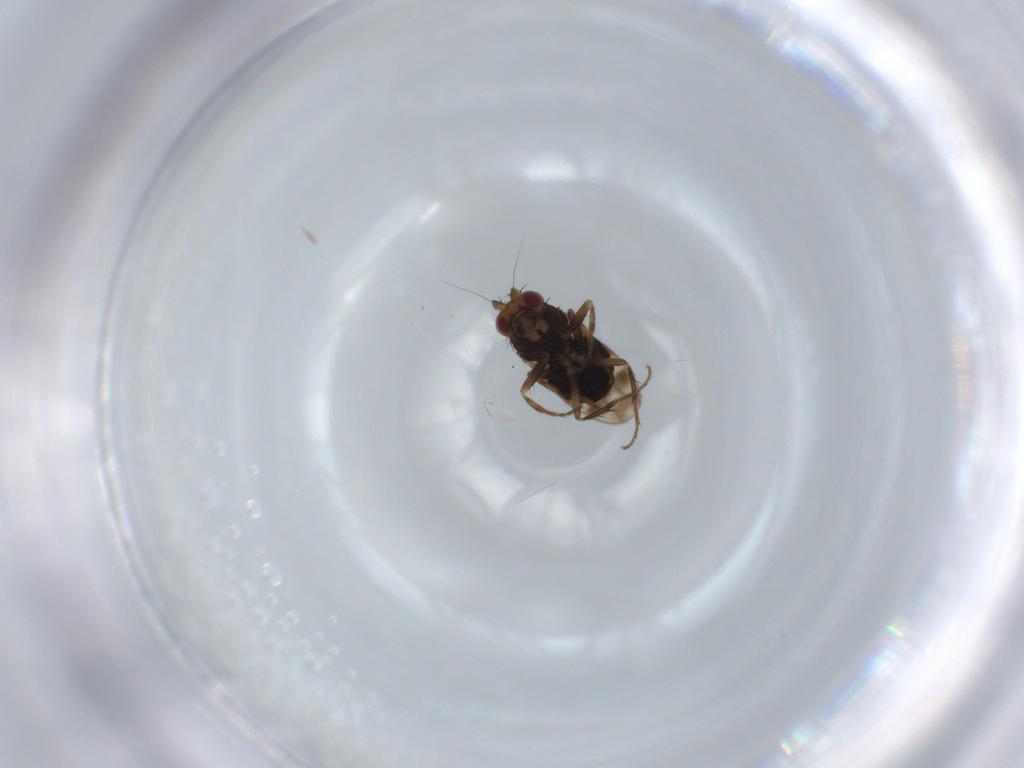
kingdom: Animalia
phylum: Arthropoda
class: Insecta
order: Diptera
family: Sphaeroceridae
